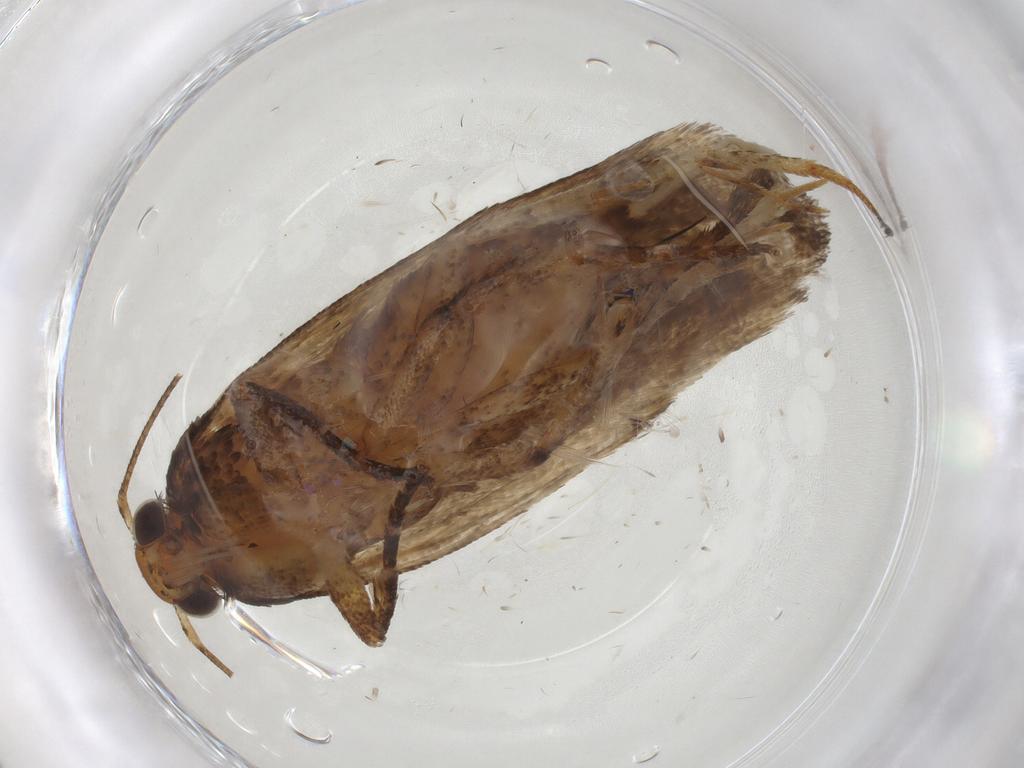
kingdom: Animalia
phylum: Arthropoda
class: Insecta
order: Lepidoptera
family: Gelechiidae
